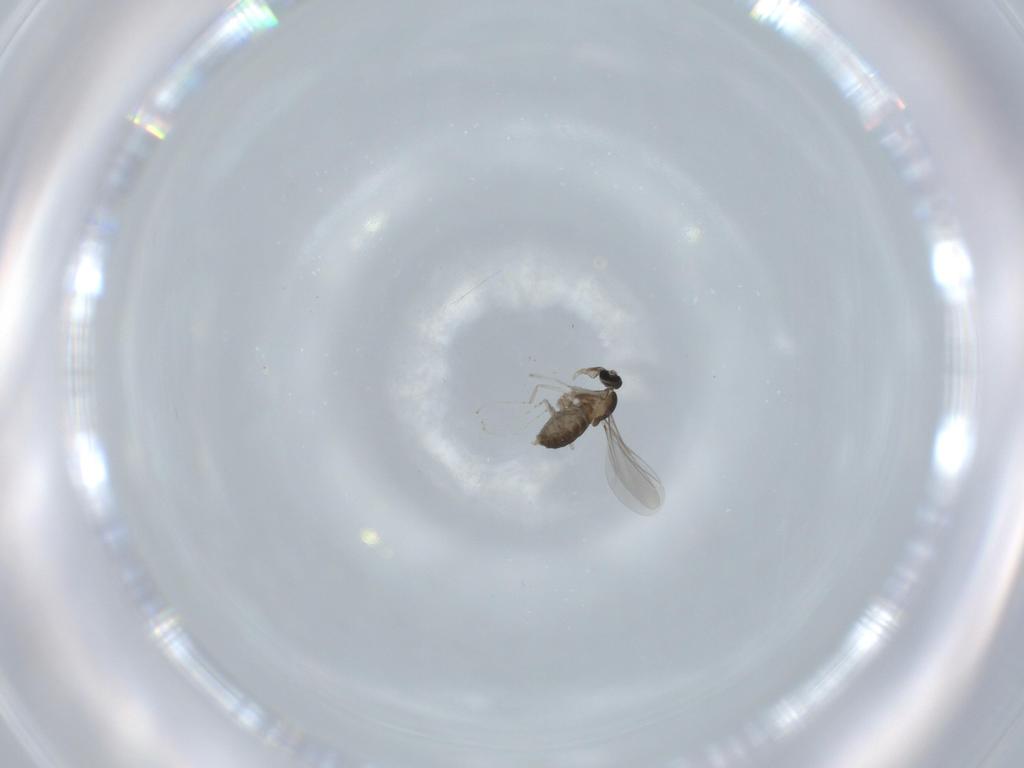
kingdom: Animalia
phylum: Arthropoda
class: Insecta
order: Diptera
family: Cecidomyiidae
